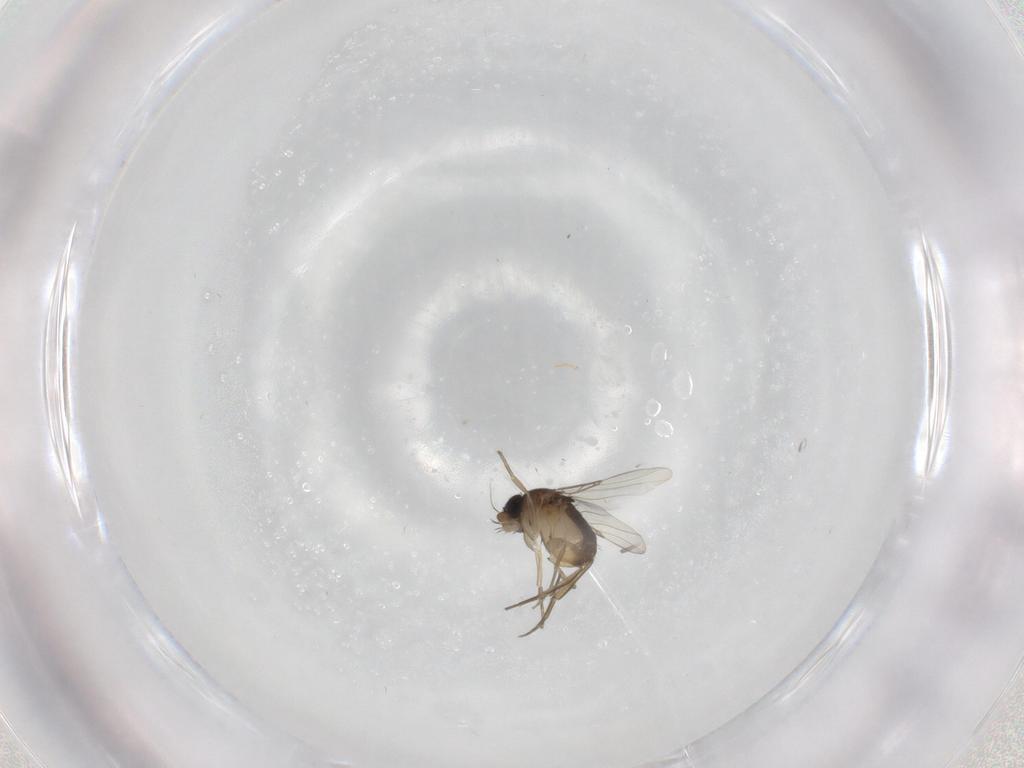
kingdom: Animalia
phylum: Arthropoda
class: Insecta
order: Diptera
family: Phoridae
